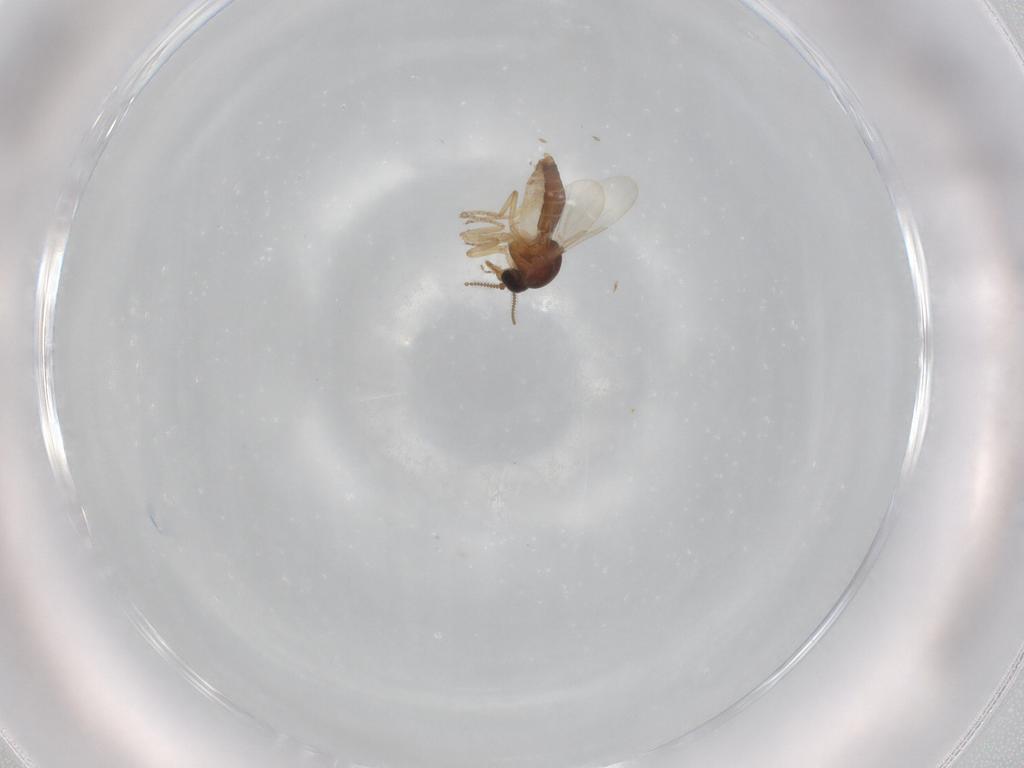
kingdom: Animalia
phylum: Arthropoda
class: Insecta
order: Diptera
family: Ceratopogonidae
